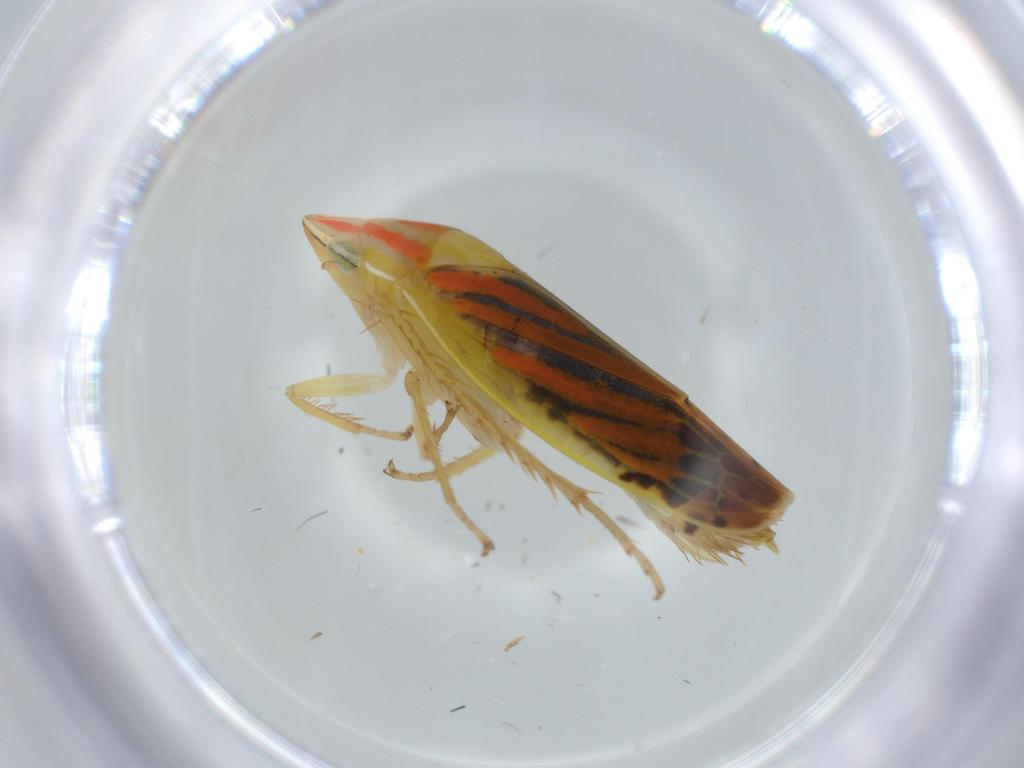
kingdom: Animalia
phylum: Arthropoda
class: Insecta
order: Hemiptera
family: Cicadellidae
